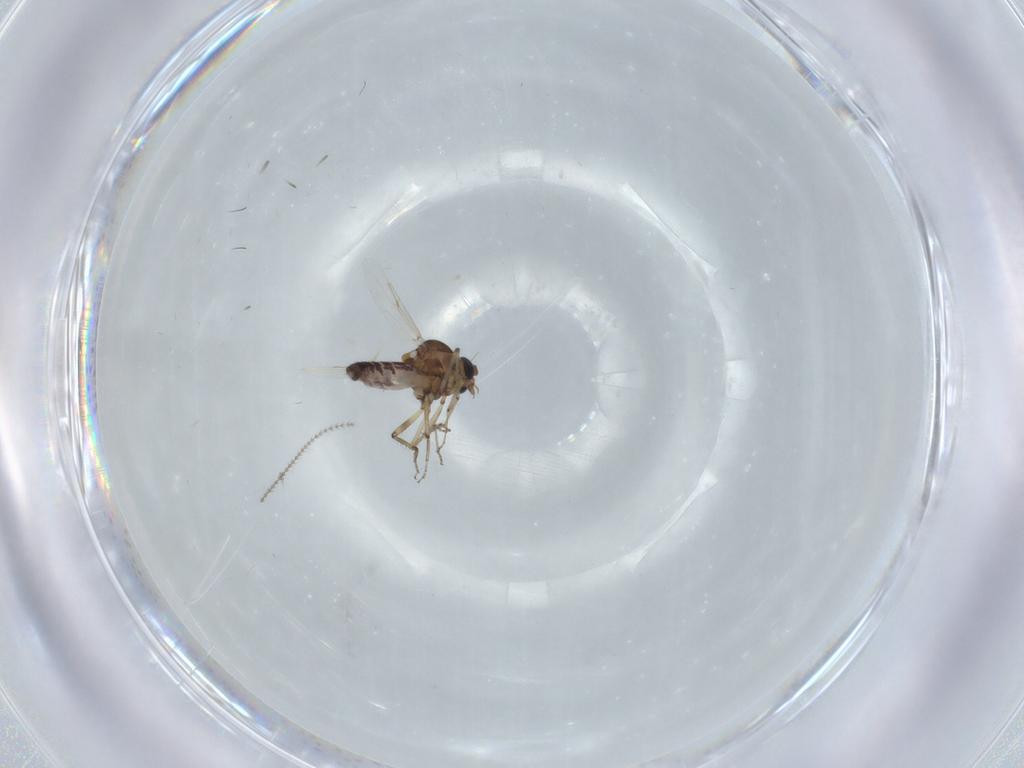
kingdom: Animalia
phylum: Arthropoda
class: Insecta
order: Diptera
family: Ceratopogonidae
